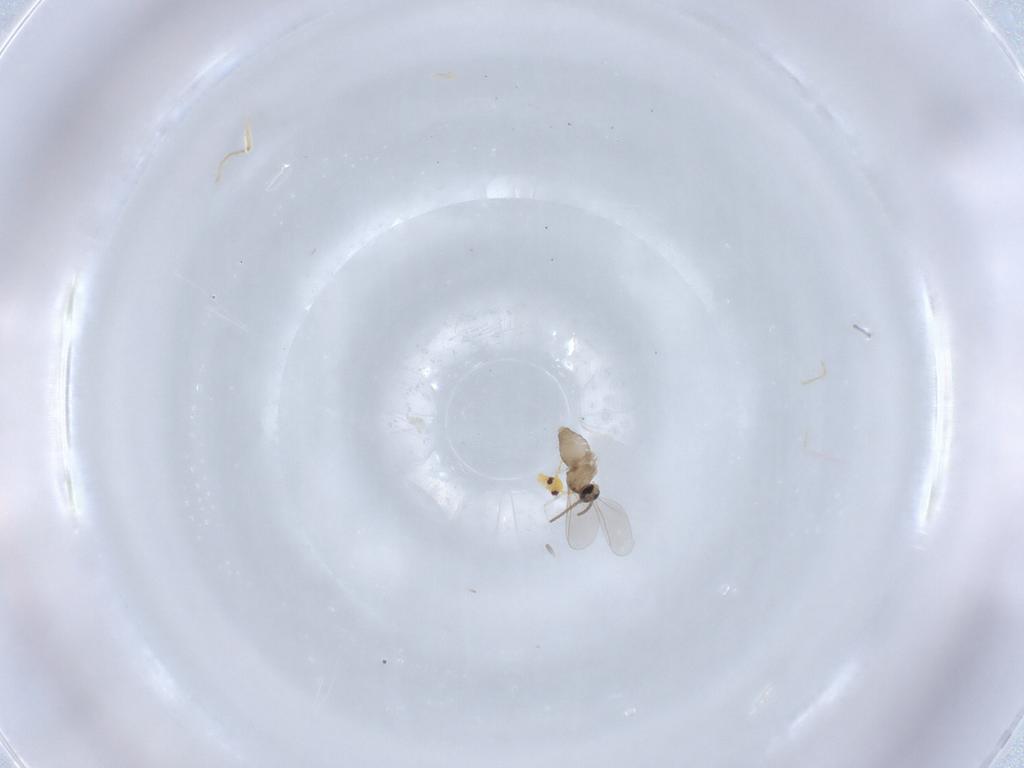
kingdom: Animalia
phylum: Arthropoda
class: Insecta
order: Diptera
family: Cecidomyiidae
